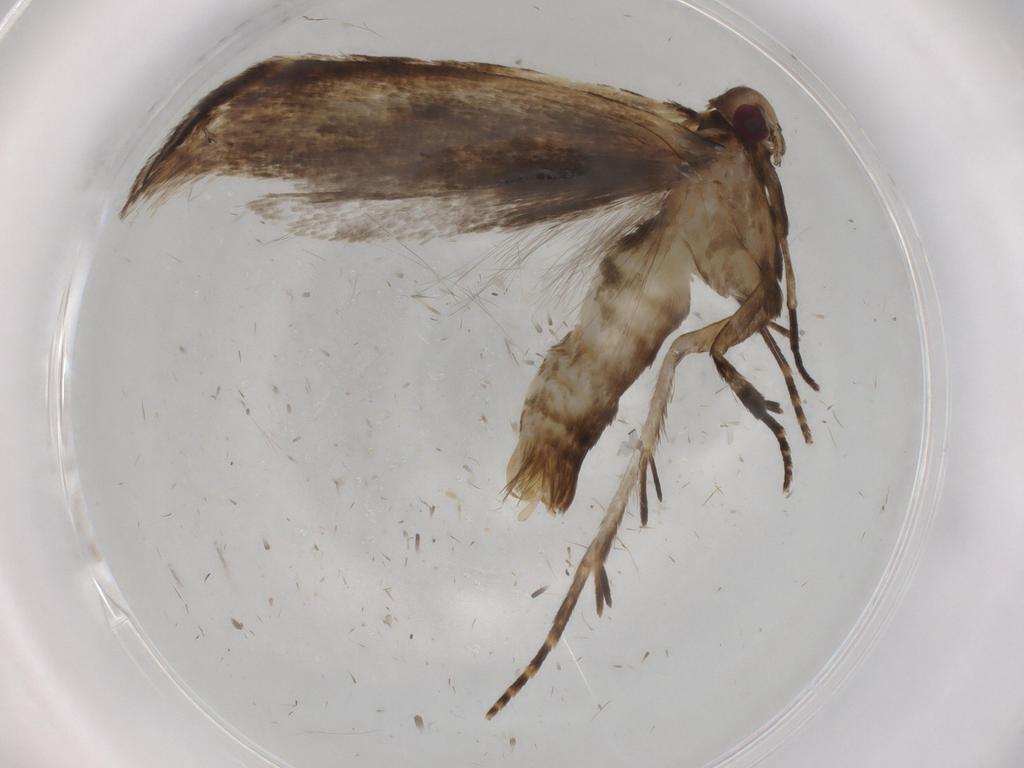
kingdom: Animalia
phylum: Arthropoda
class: Insecta
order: Lepidoptera
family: Gelechiidae
